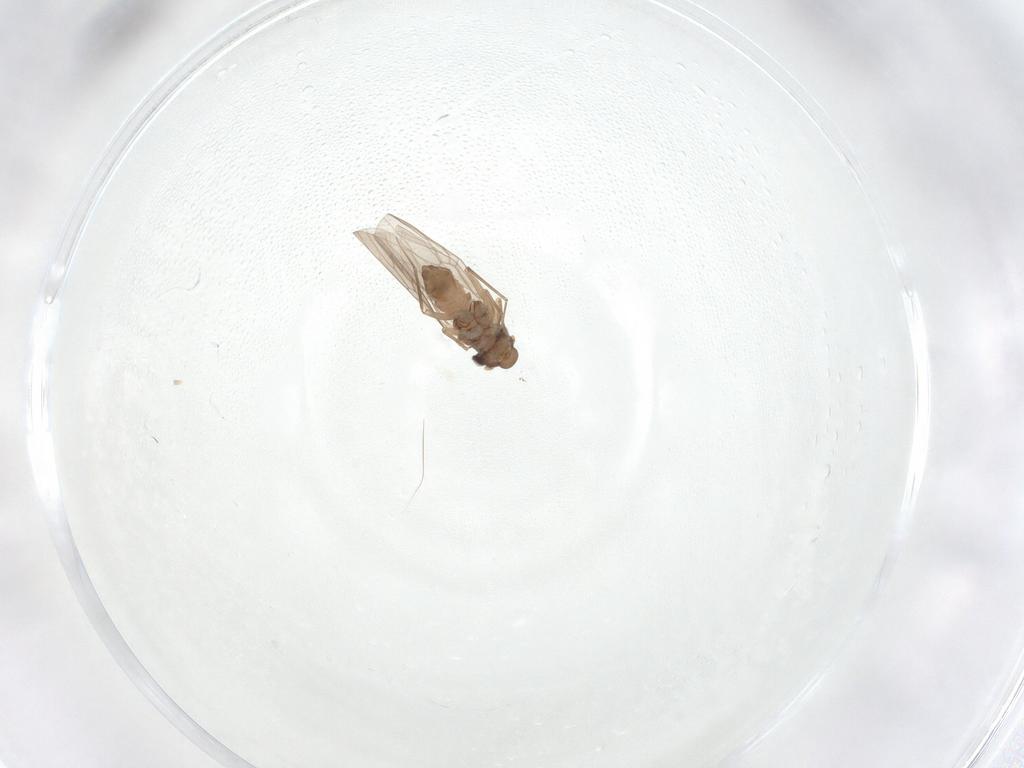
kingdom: Animalia
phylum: Arthropoda
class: Insecta
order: Psocodea
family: Lepidopsocidae
